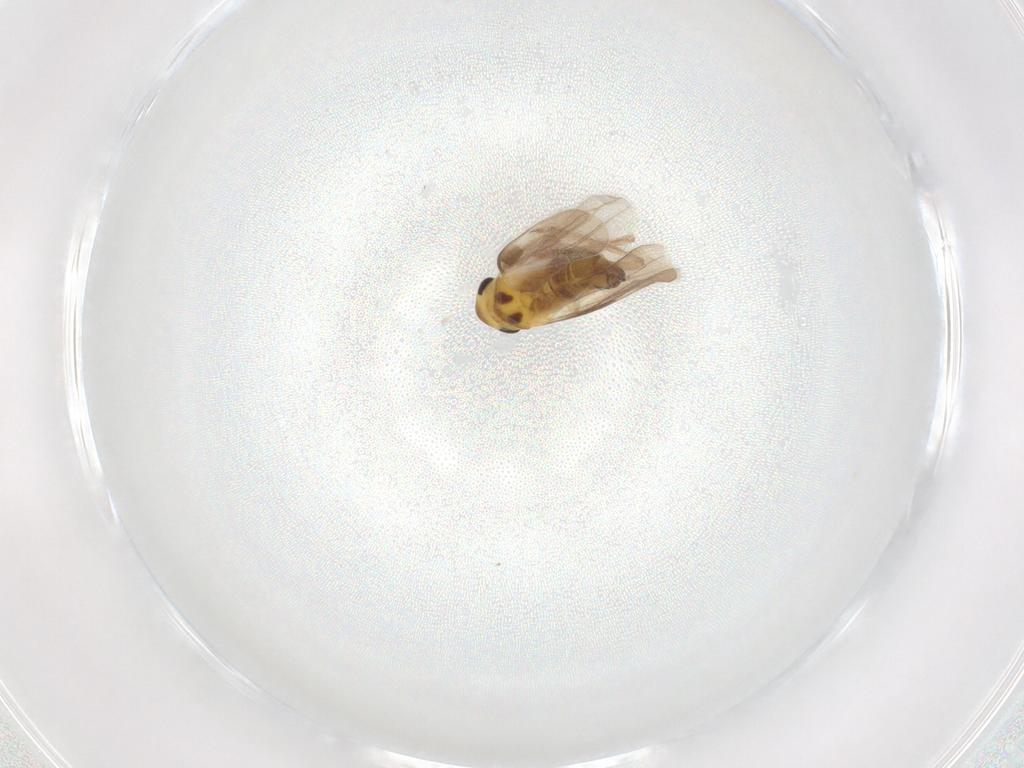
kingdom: Animalia
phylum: Arthropoda
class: Insecta
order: Hemiptera
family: Cicadellidae
